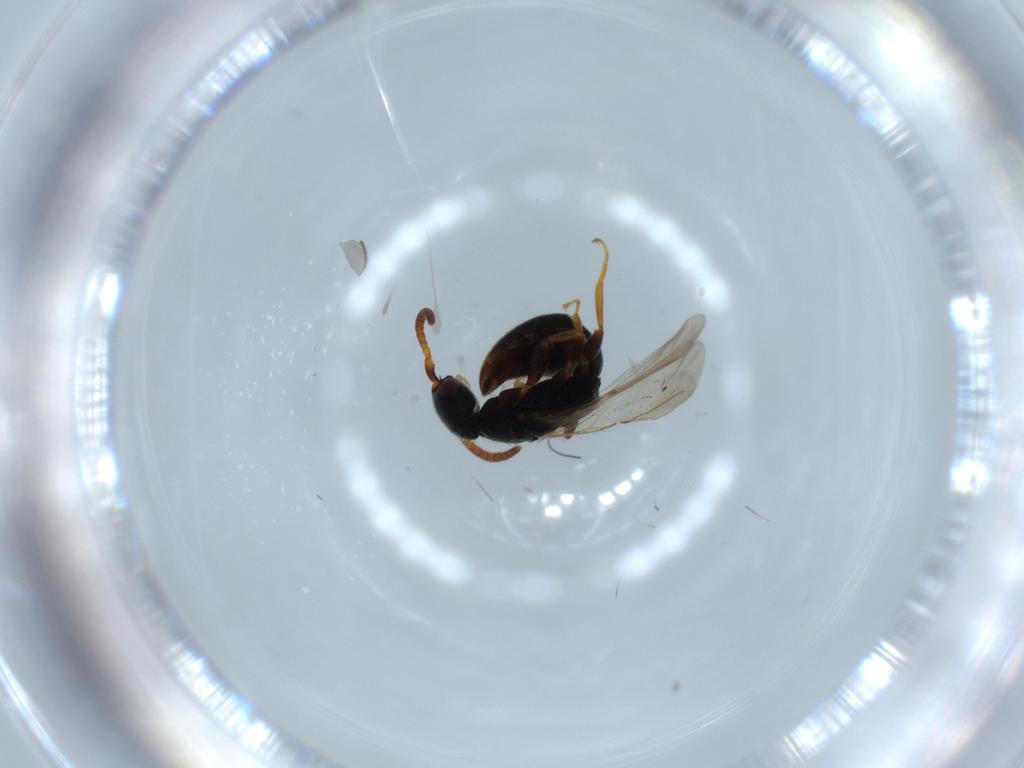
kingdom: Animalia
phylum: Arthropoda
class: Insecta
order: Hymenoptera
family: Bethylidae
